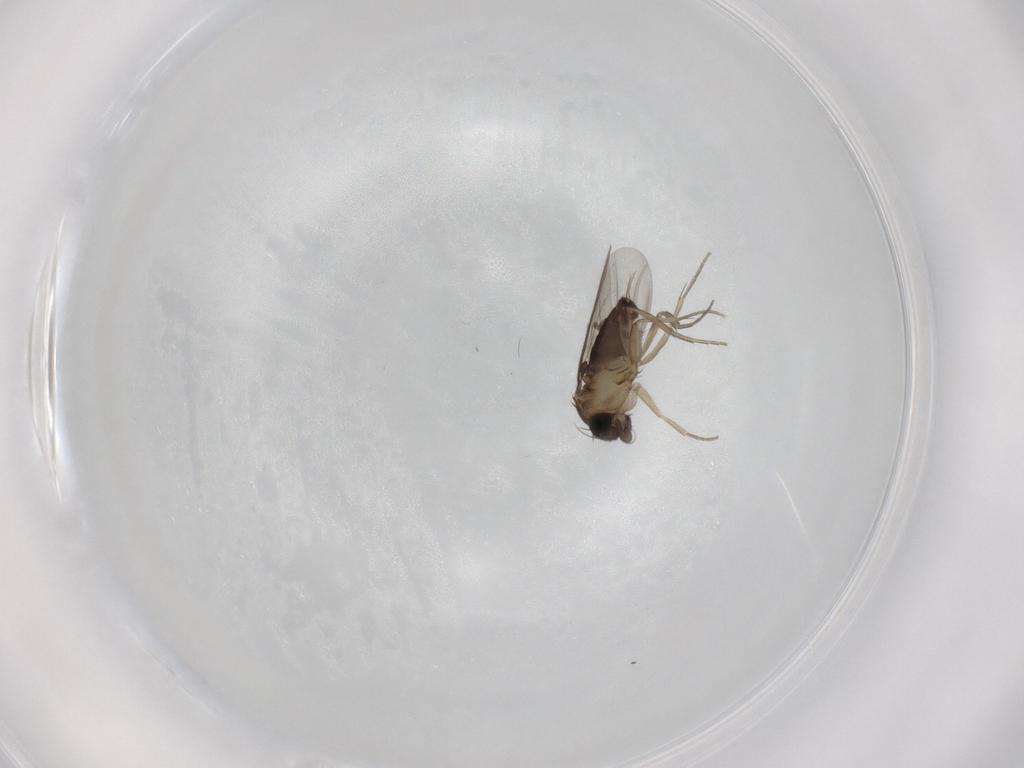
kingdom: Animalia
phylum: Arthropoda
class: Insecta
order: Diptera
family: Phoridae
